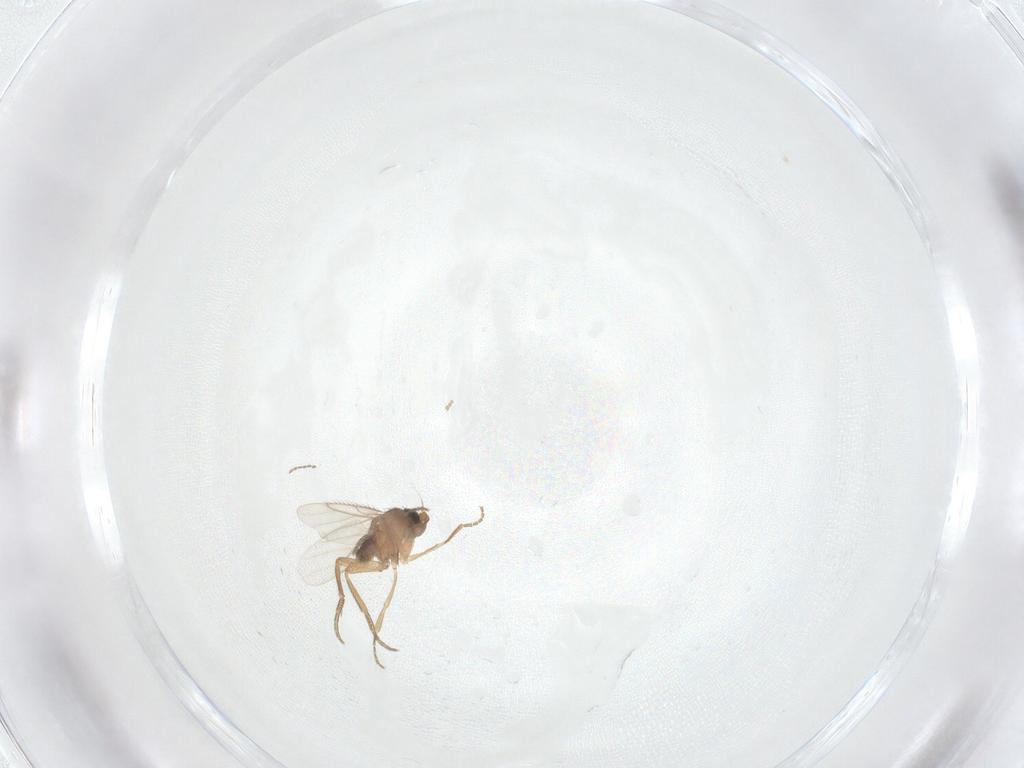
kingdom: Animalia
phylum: Arthropoda
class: Insecta
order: Diptera
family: Phoridae
